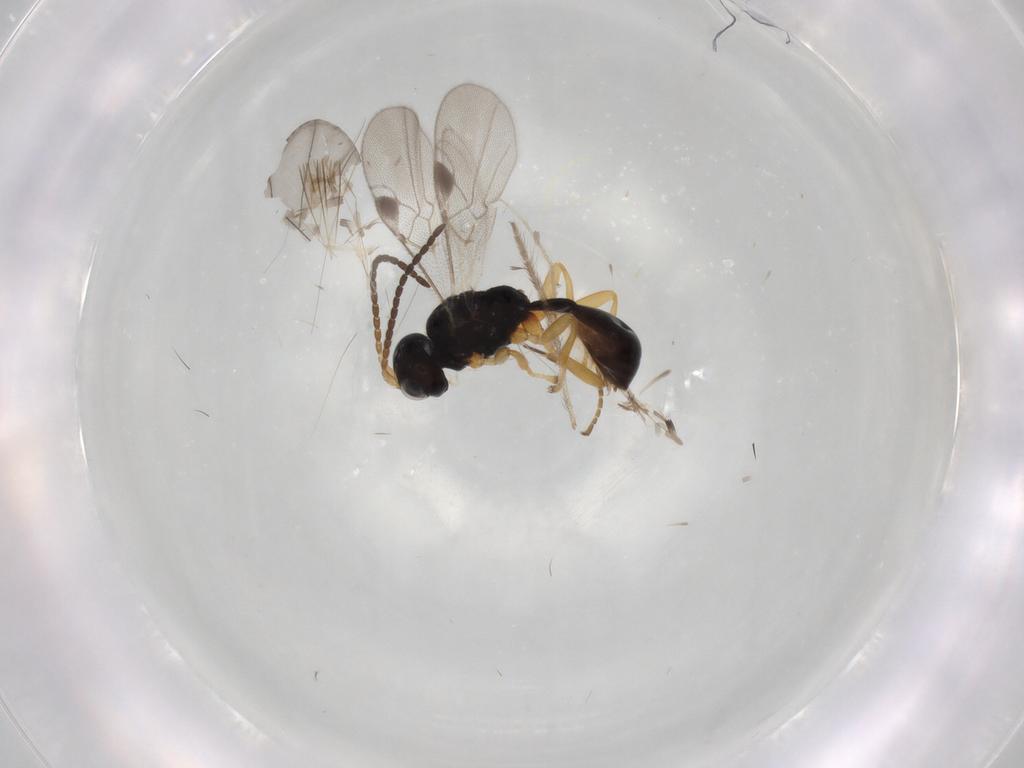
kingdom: Animalia
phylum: Arthropoda
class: Insecta
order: Hymenoptera
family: Braconidae
